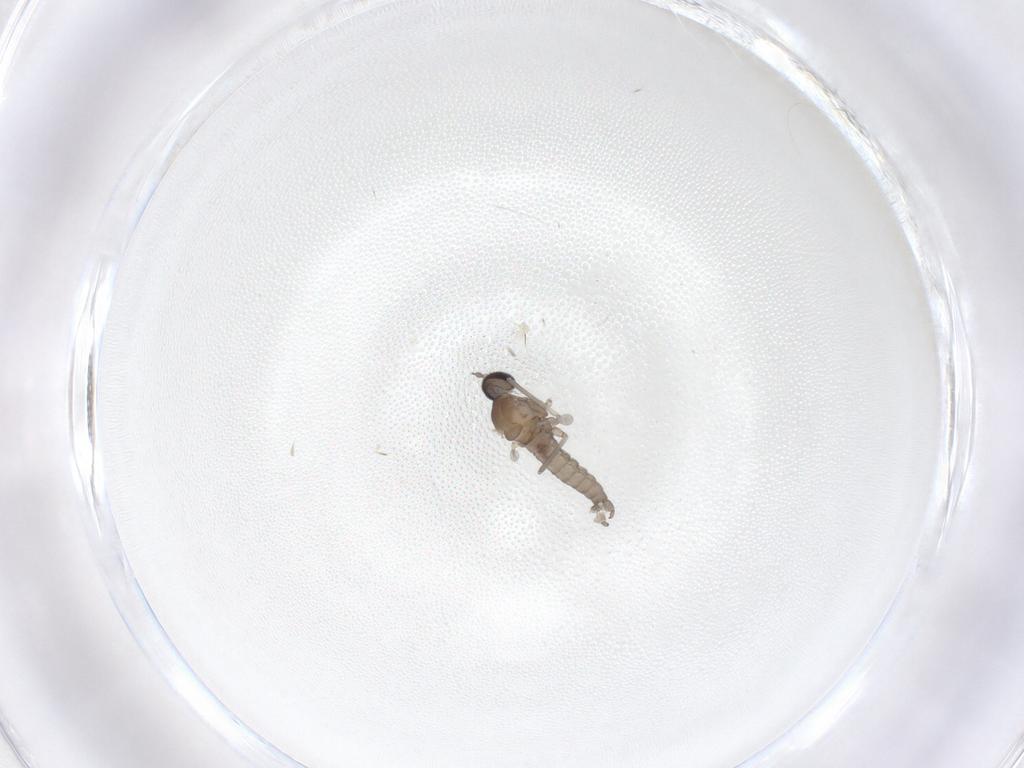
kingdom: Animalia
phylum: Arthropoda
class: Insecta
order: Diptera
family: Cecidomyiidae
